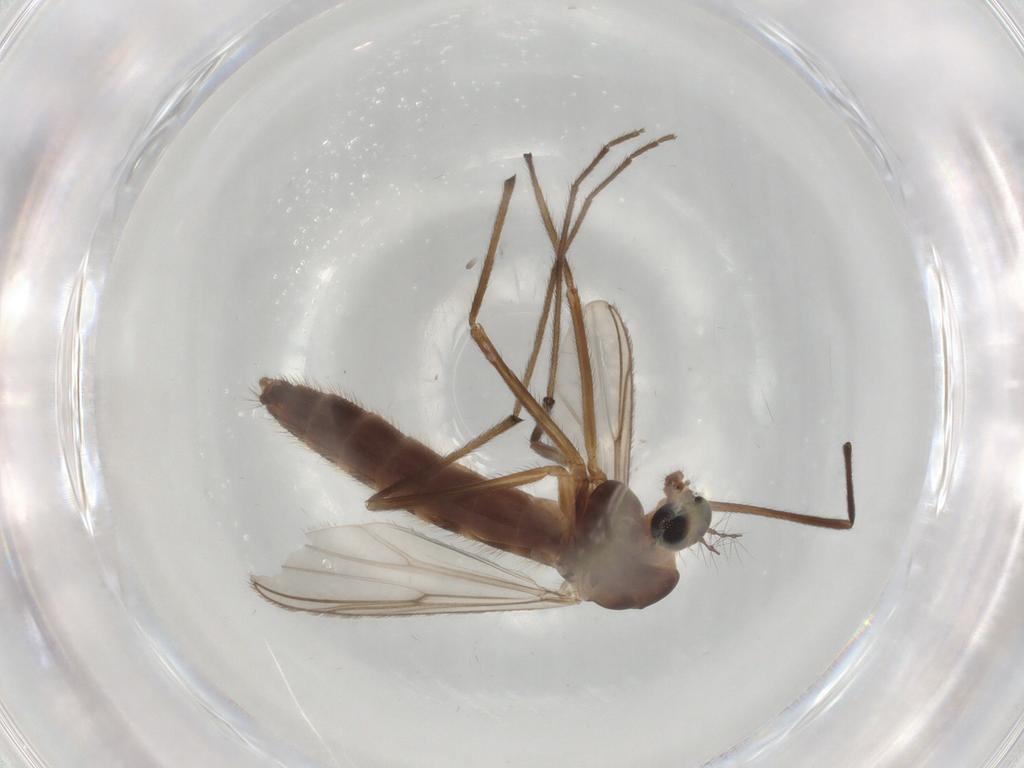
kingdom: Animalia
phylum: Arthropoda
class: Insecta
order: Diptera
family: Chironomidae
